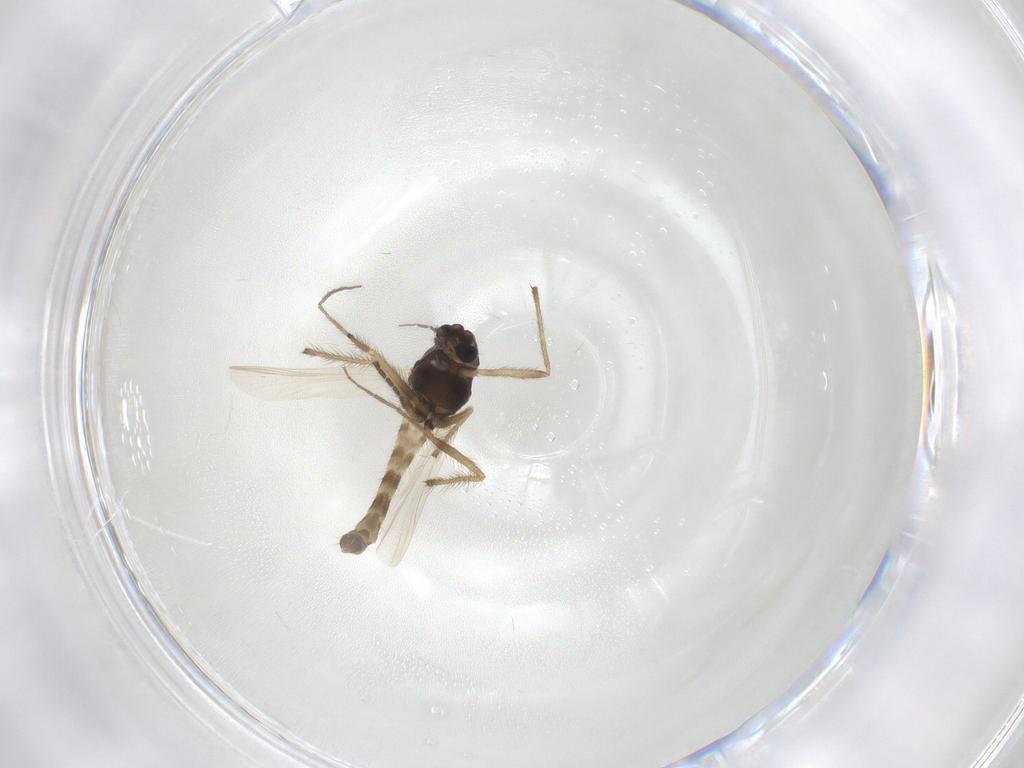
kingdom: Animalia
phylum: Arthropoda
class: Insecta
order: Diptera
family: Chironomidae
